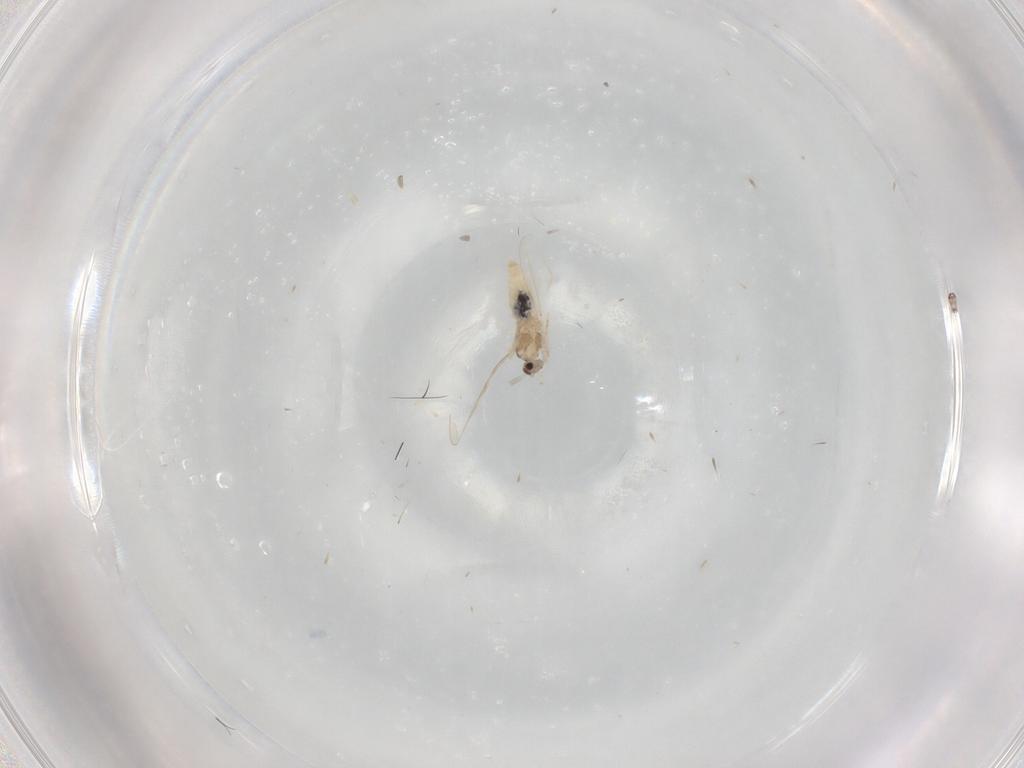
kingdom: Animalia
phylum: Arthropoda
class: Insecta
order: Diptera
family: Cecidomyiidae
